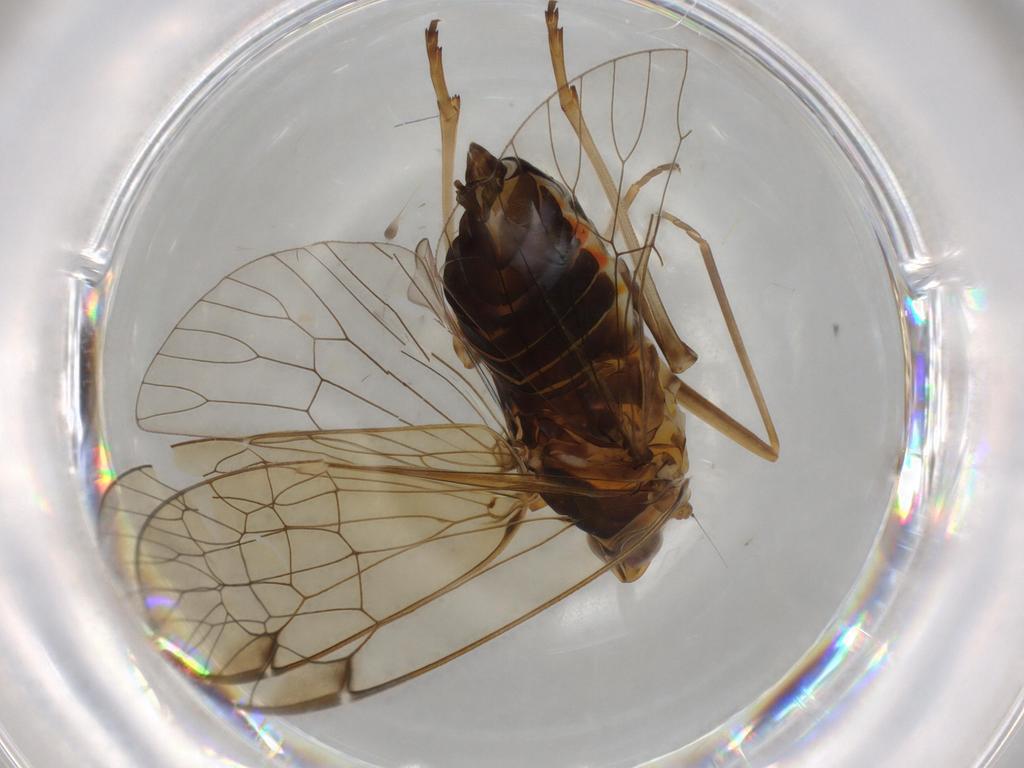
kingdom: Animalia
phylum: Arthropoda
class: Insecta
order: Hemiptera
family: Kinnaridae
